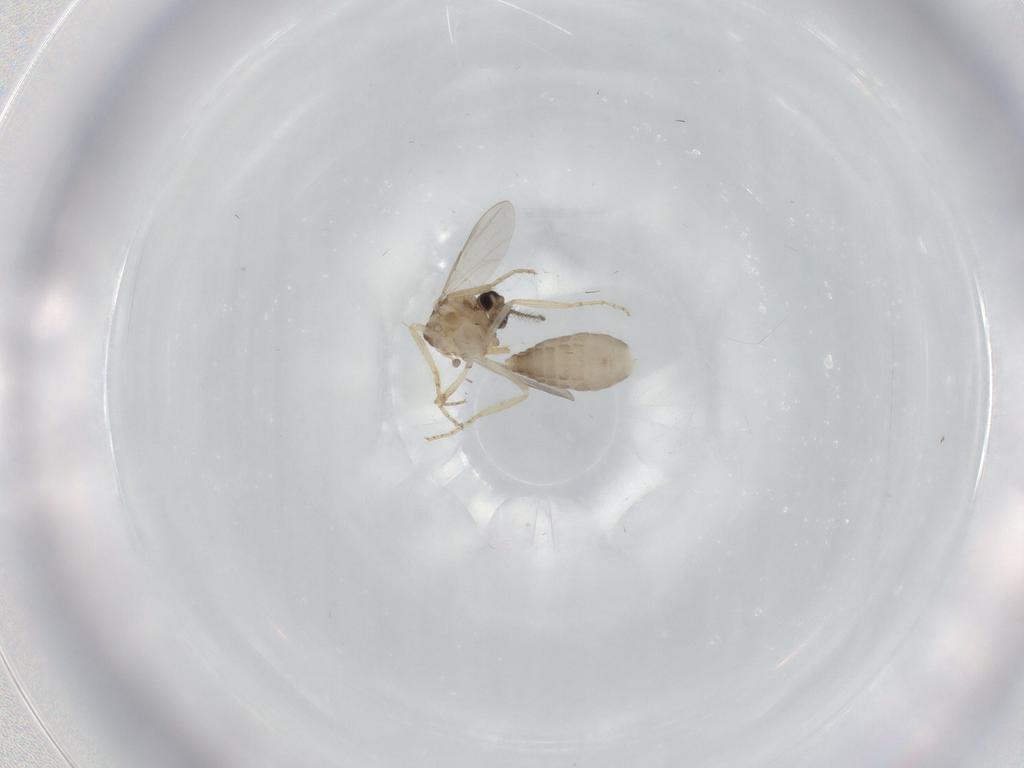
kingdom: Animalia
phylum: Arthropoda
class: Insecta
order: Diptera
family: Ceratopogonidae
